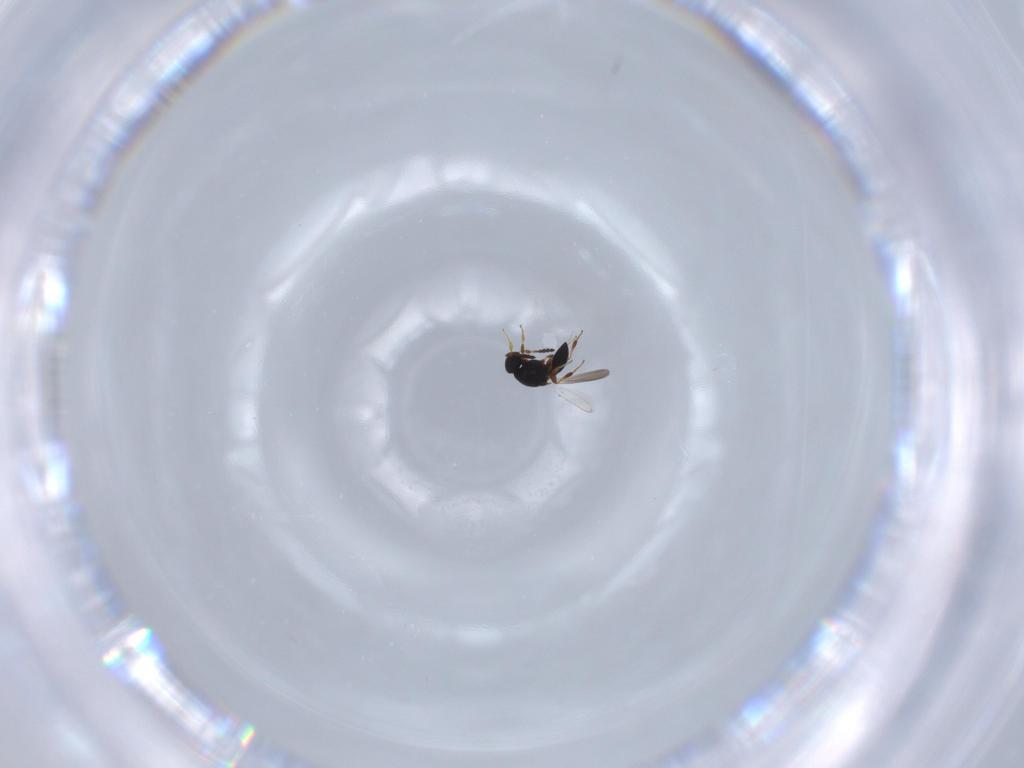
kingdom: Animalia
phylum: Arthropoda
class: Insecta
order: Hymenoptera
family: Platygastridae
